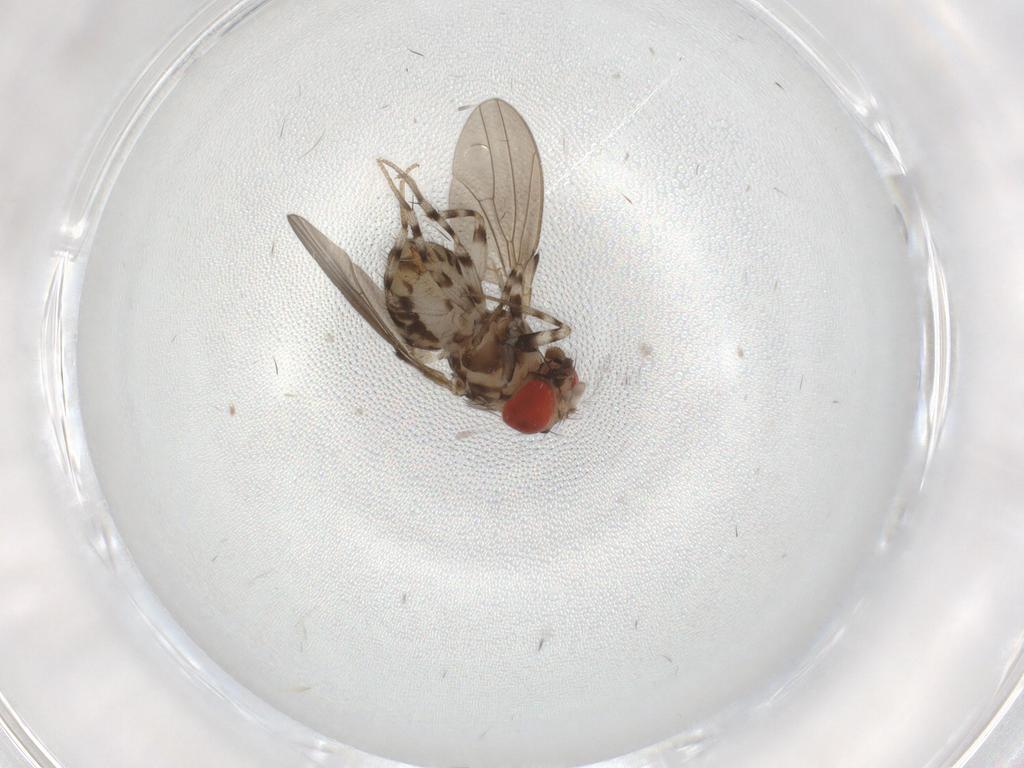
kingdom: Animalia
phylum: Arthropoda
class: Insecta
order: Diptera
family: Drosophilidae
